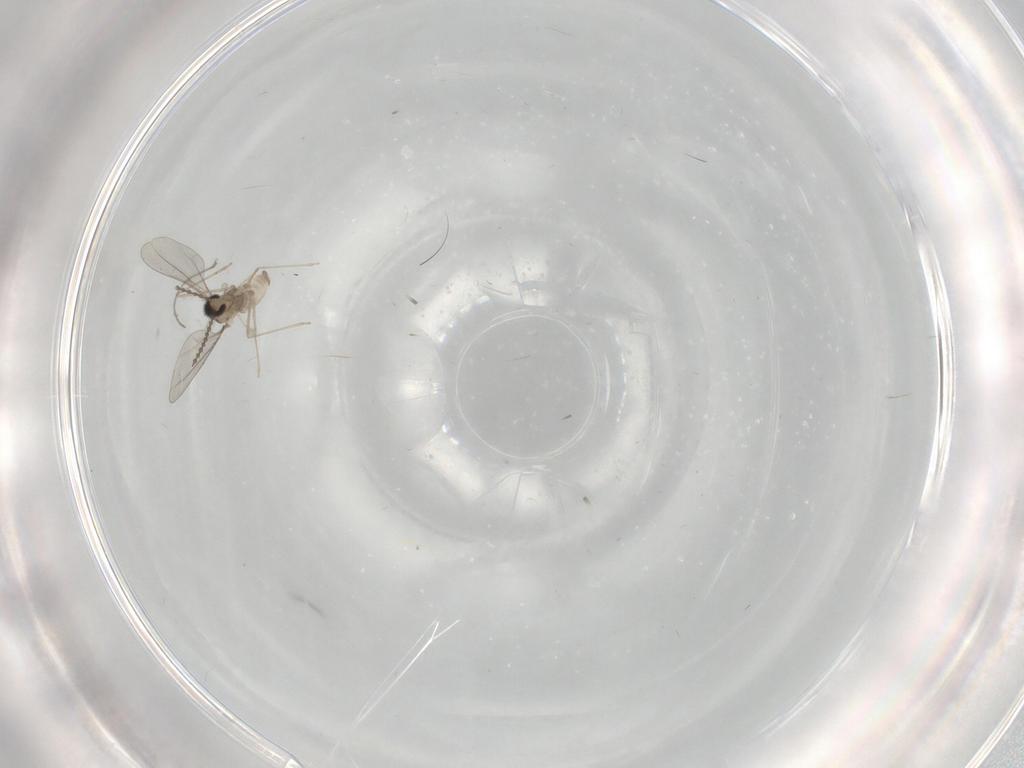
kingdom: Animalia
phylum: Arthropoda
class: Insecta
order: Diptera
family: Cecidomyiidae
